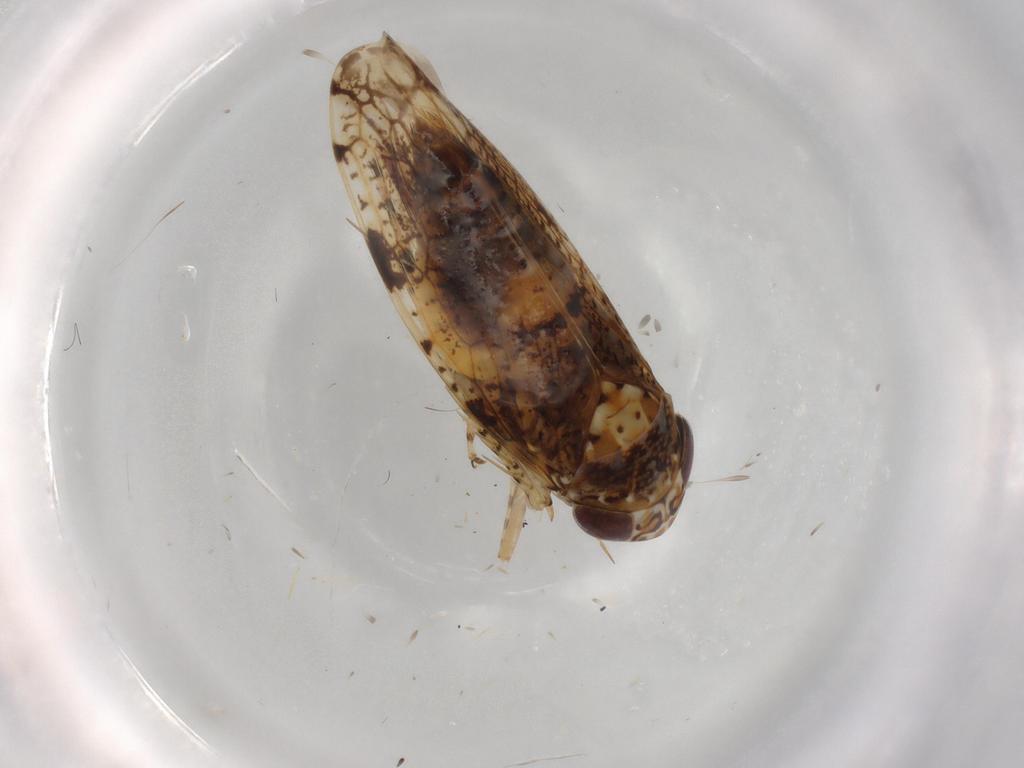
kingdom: Animalia
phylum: Arthropoda
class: Insecta
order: Hemiptera
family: Cicadellidae
